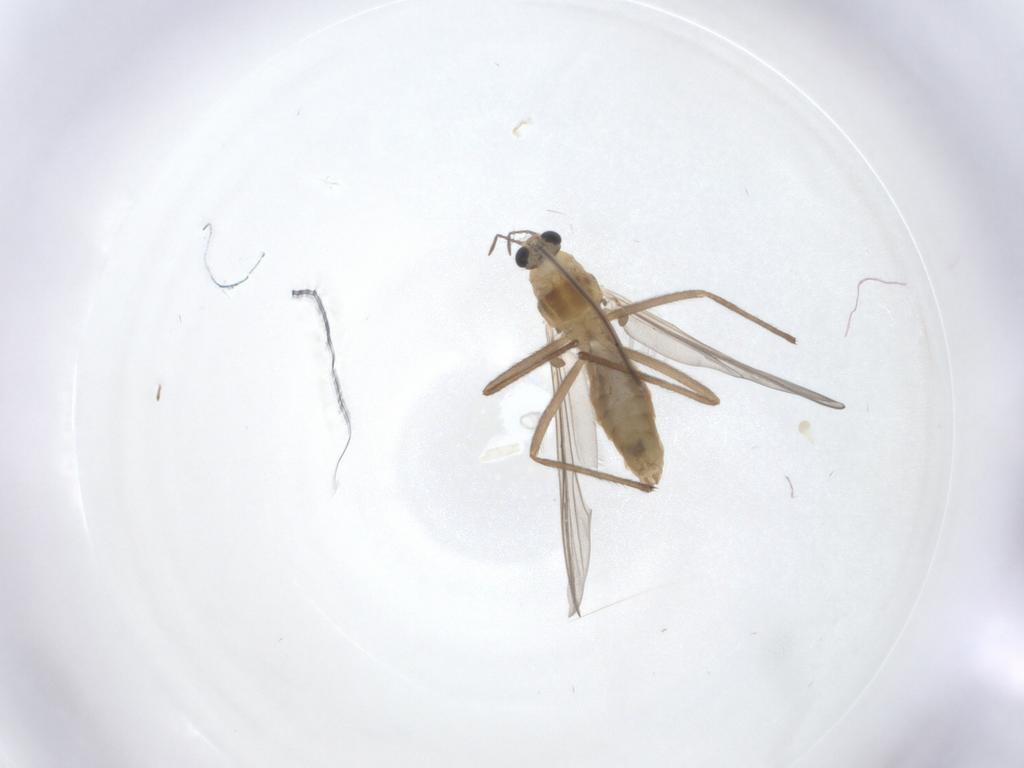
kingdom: Animalia
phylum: Arthropoda
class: Insecta
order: Diptera
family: Chironomidae
